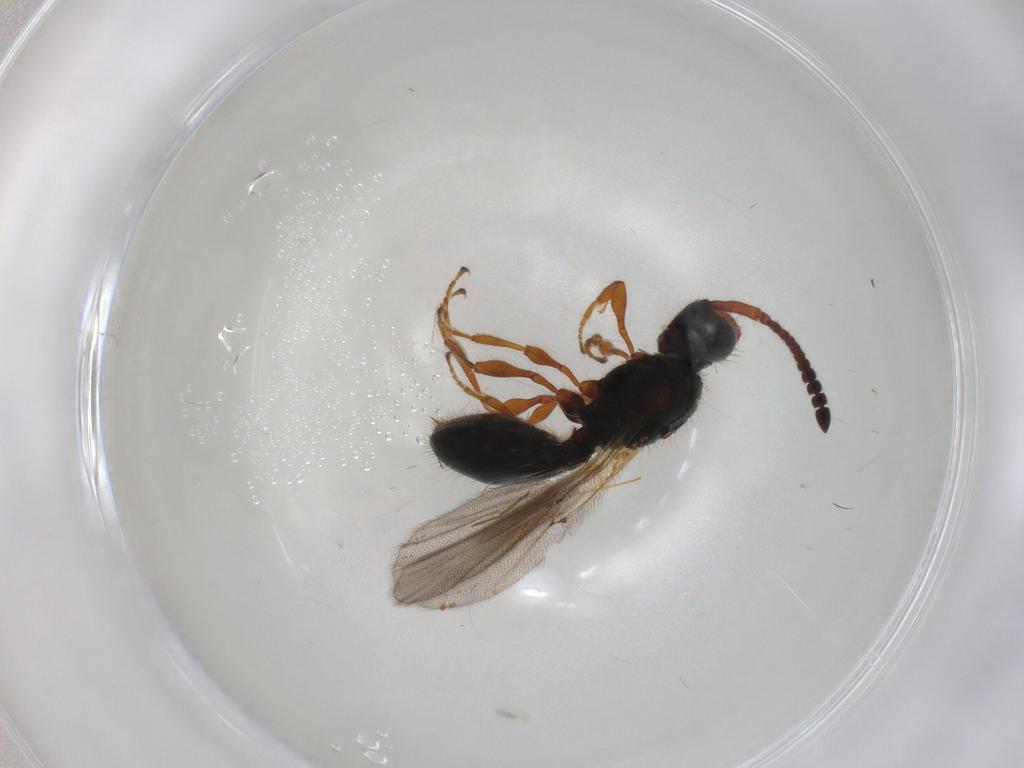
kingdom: Animalia
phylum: Arthropoda
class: Insecta
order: Hymenoptera
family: Diapriidae
